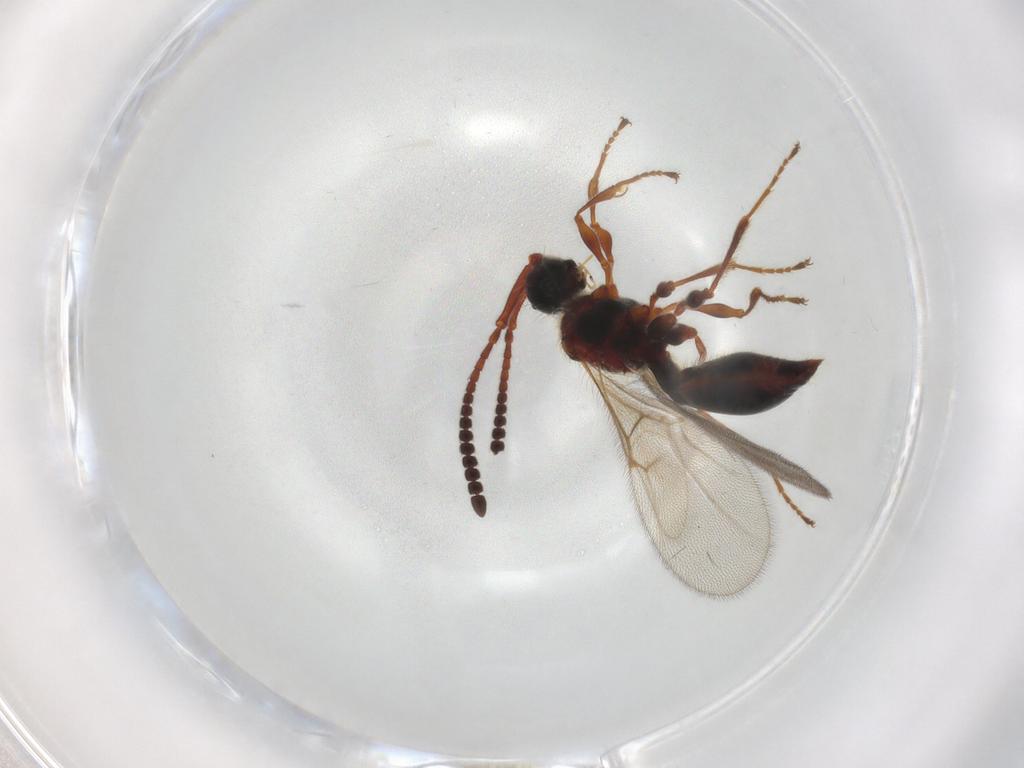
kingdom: Animalia
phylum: Arthropoda
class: Insecta
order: Hymenoptera
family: Diapriidae
